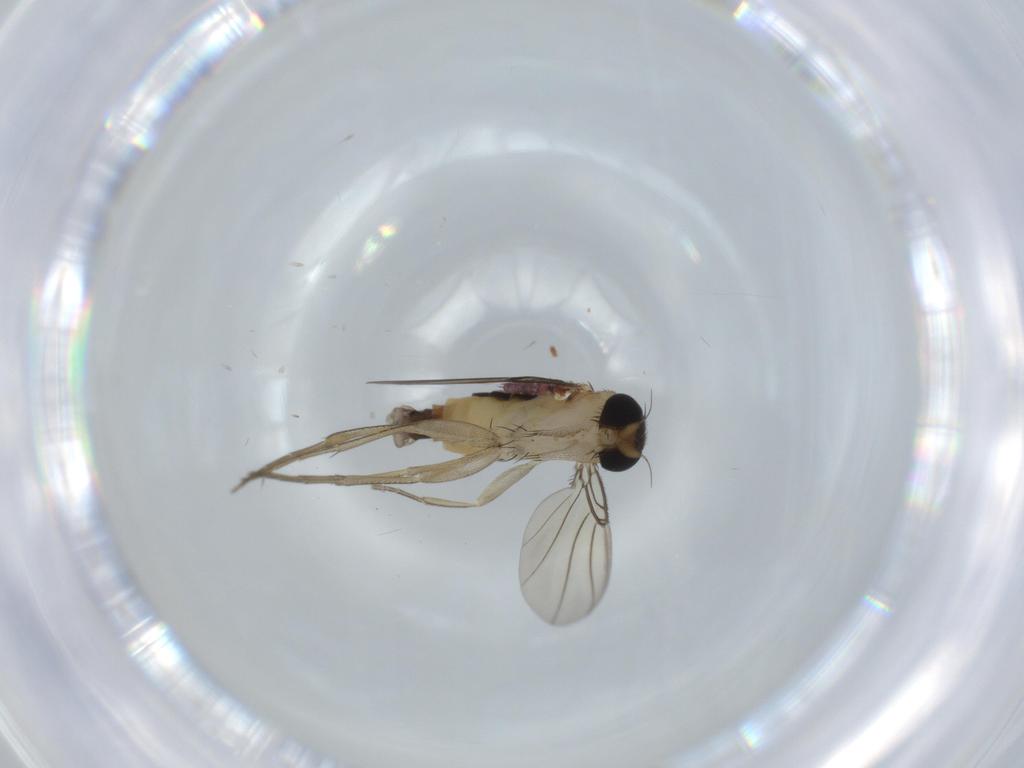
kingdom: Animalia
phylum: Arthropoda
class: Insecta
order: Diptera
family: Phoridae
